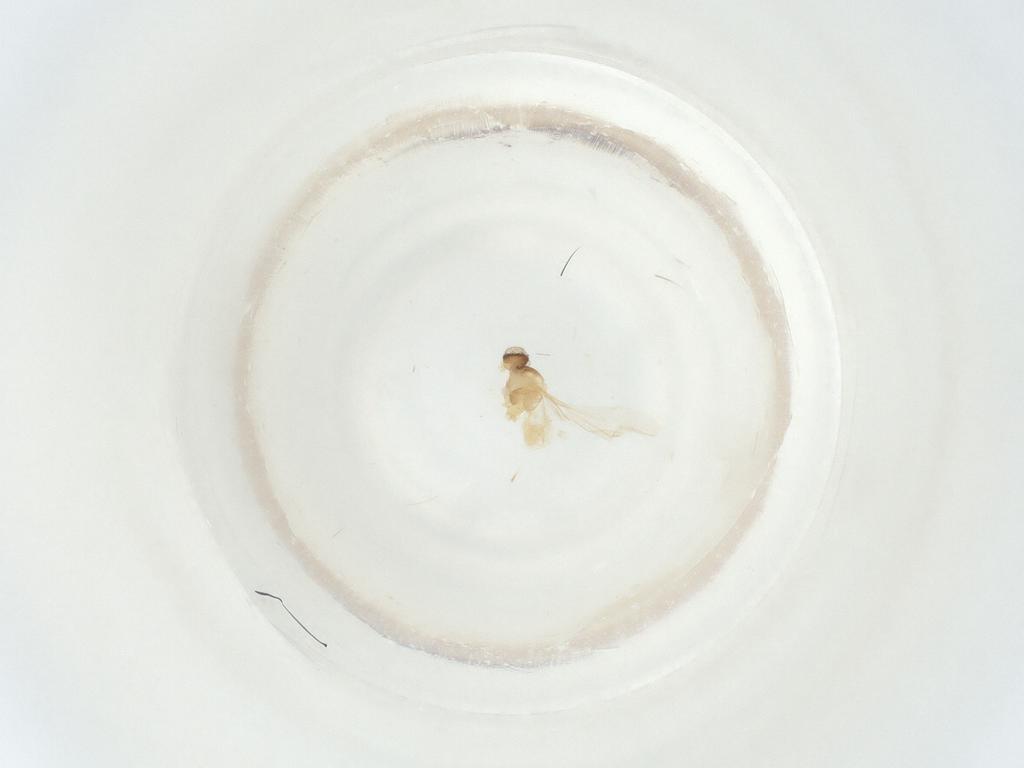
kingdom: Animalia
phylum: Arthropoda
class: Insecta
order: Diptera
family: Cecidomyiidae
